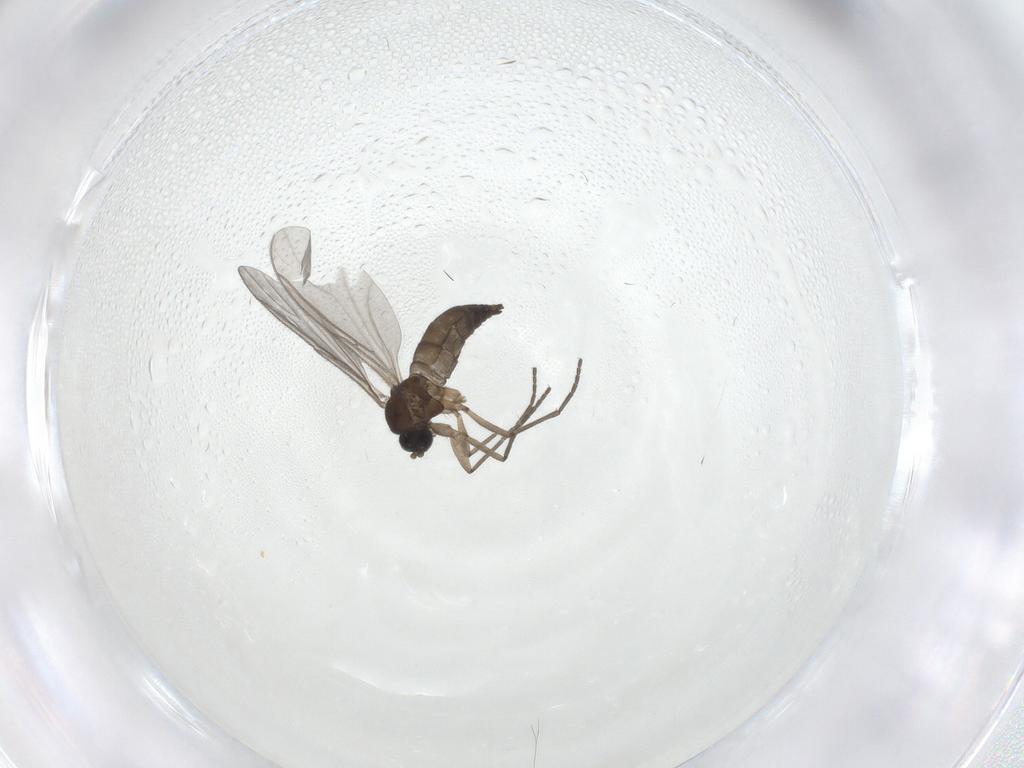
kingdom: Animalia
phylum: Arthropoda
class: Insecta
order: Diptera
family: Sciaridae
